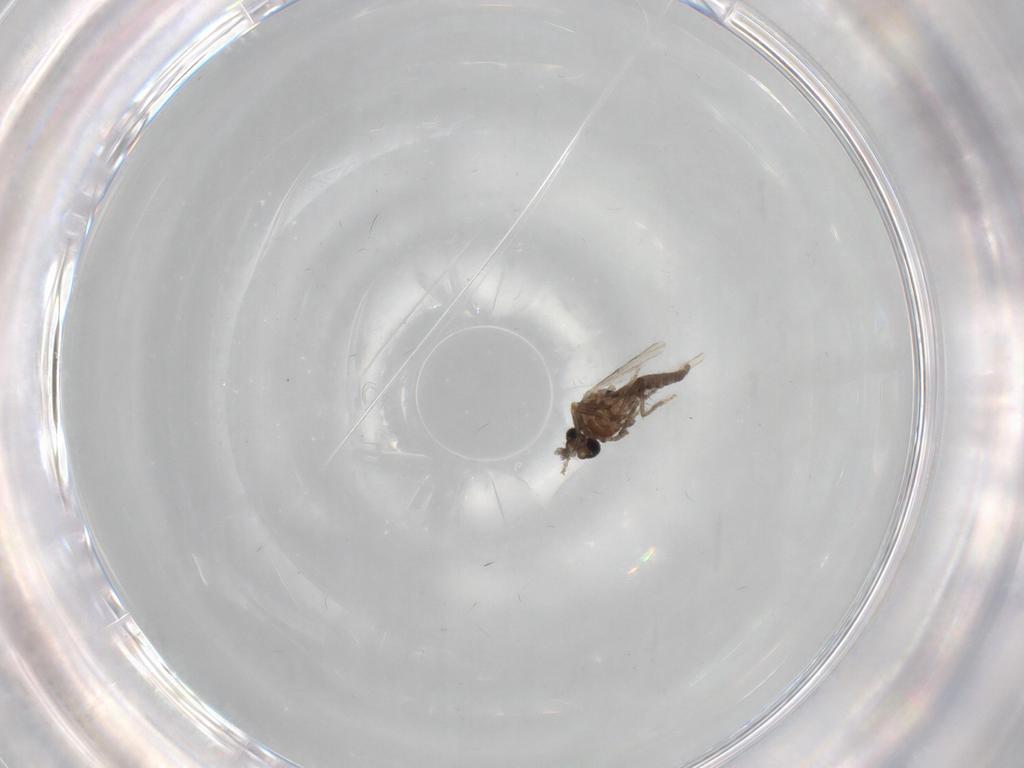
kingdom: Animalia
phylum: Arthropoda
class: Insecta
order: Diptera
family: Ceratopogonidae
